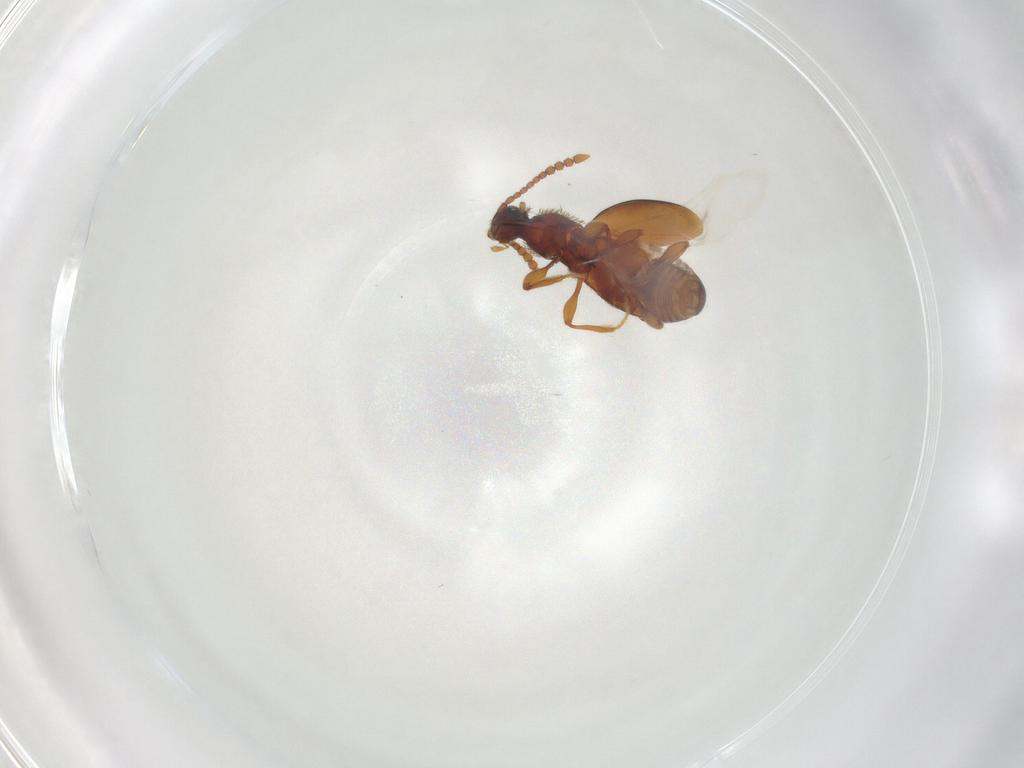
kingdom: Animalia
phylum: Arthropoda
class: Insecta
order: Coleoptera
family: Staphylinidae
